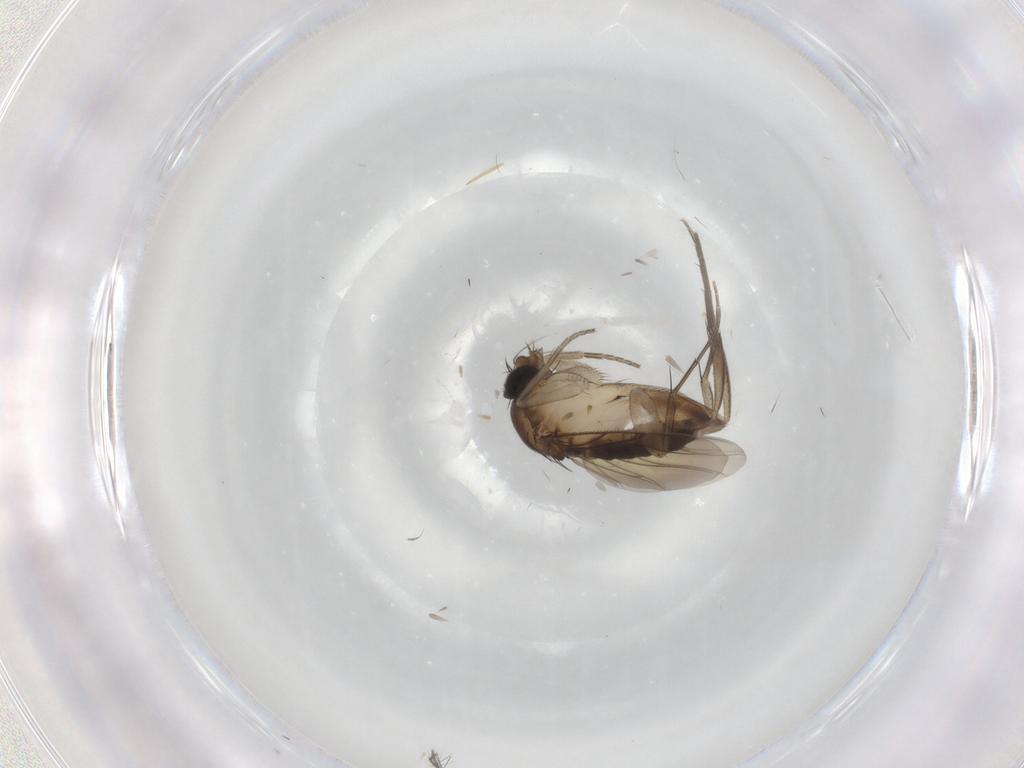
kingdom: Animalia
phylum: Arthropoda
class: Insecta
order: Diptera
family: Phoridae
